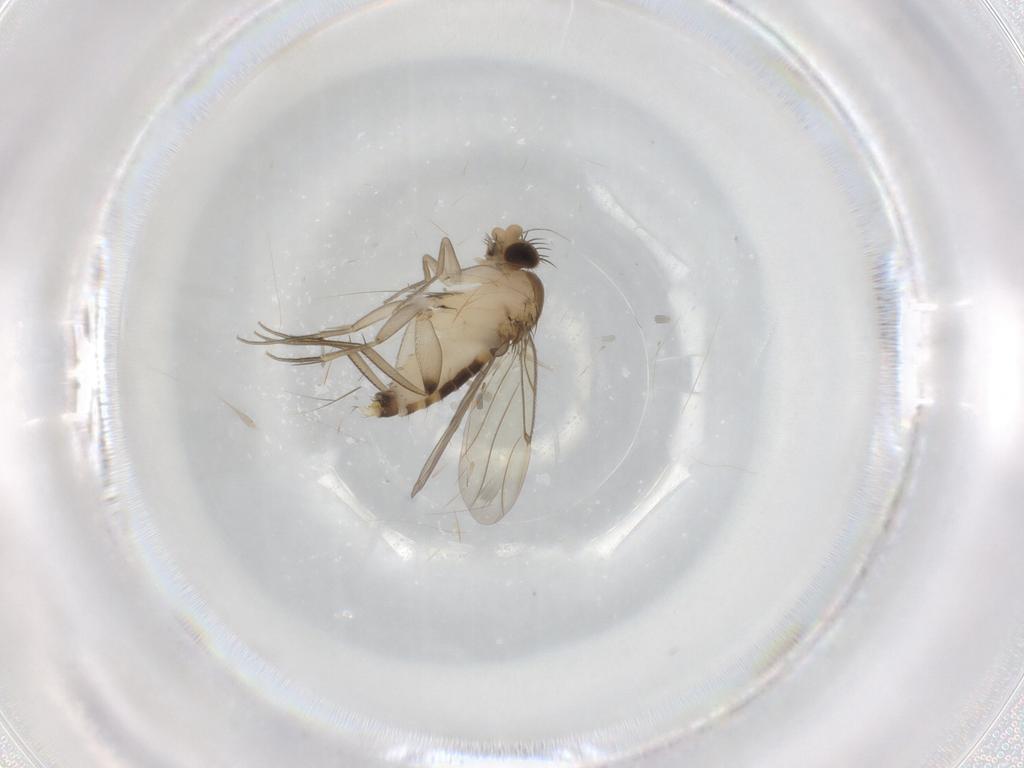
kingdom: Animalia
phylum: Arthropoda
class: Insecta
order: Diptera
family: Phoridae
